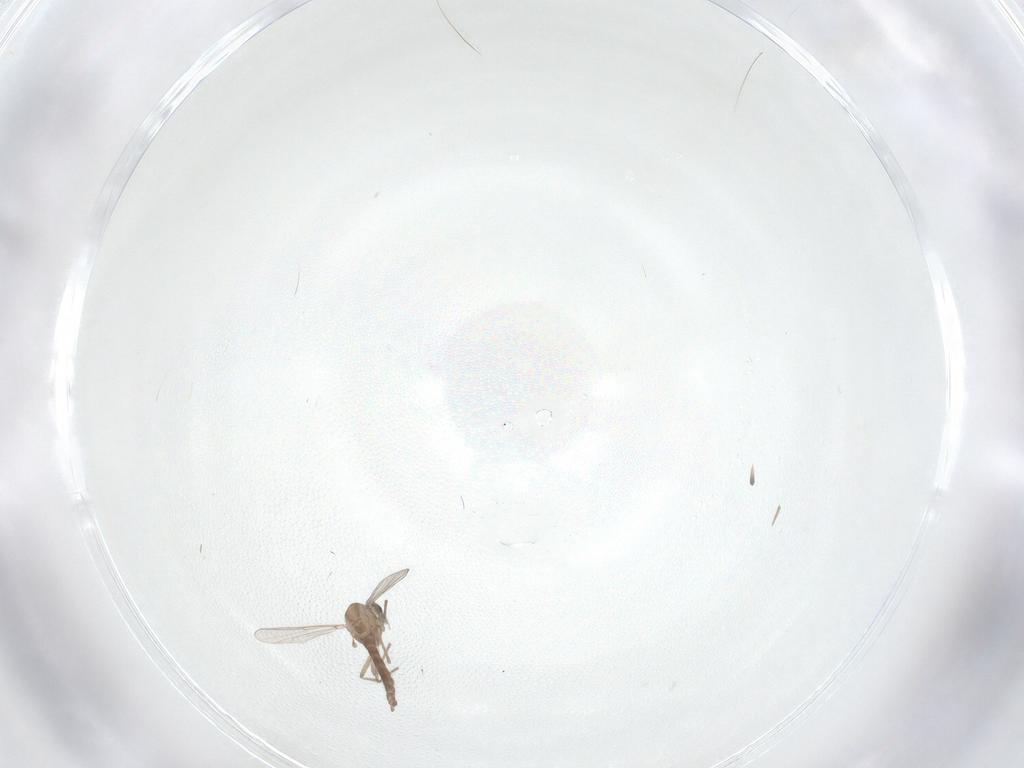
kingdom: Animalia
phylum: Arthropoda
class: Insecta
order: Diptera
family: Chironomidae
